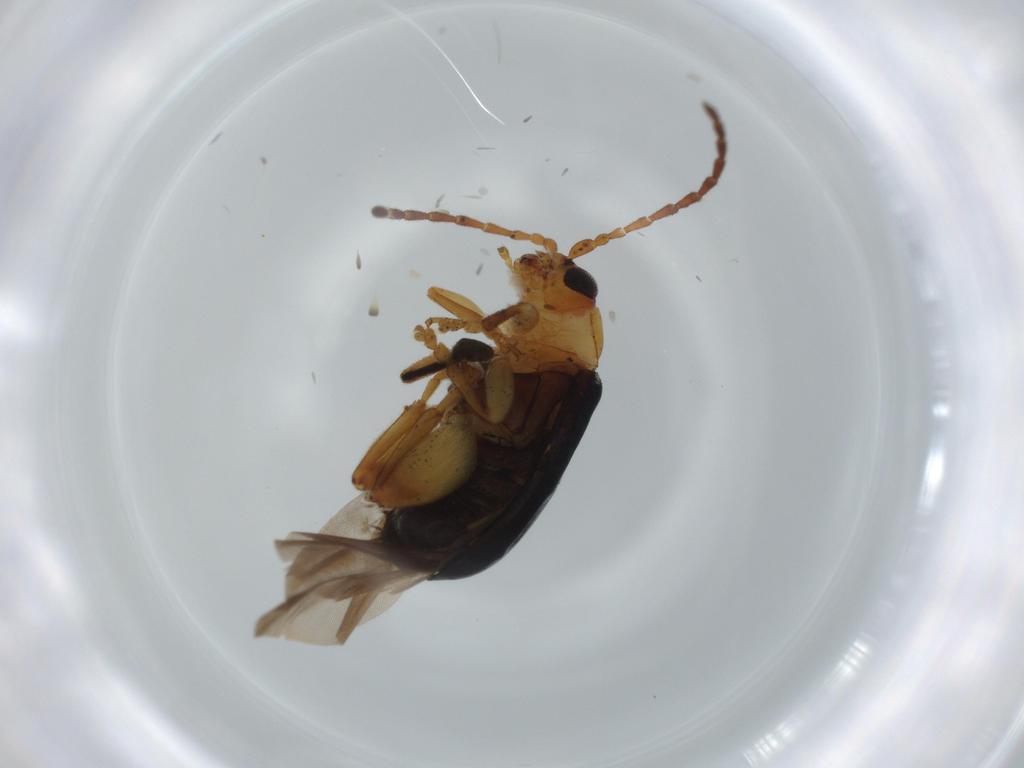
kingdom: Animalia
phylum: Arthropoda
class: Insecta
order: Coleoptera
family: Chrysomelidae
